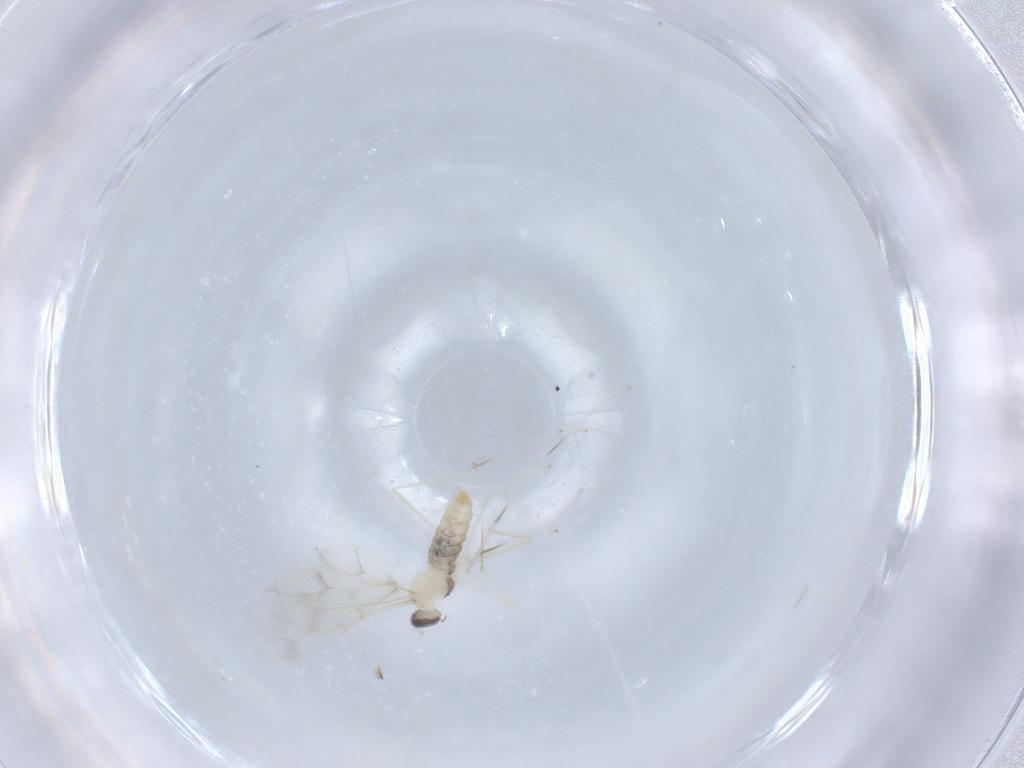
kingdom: Animalia
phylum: Arthropoda
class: Insecta
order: Diptera
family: Cecidomyiidae
